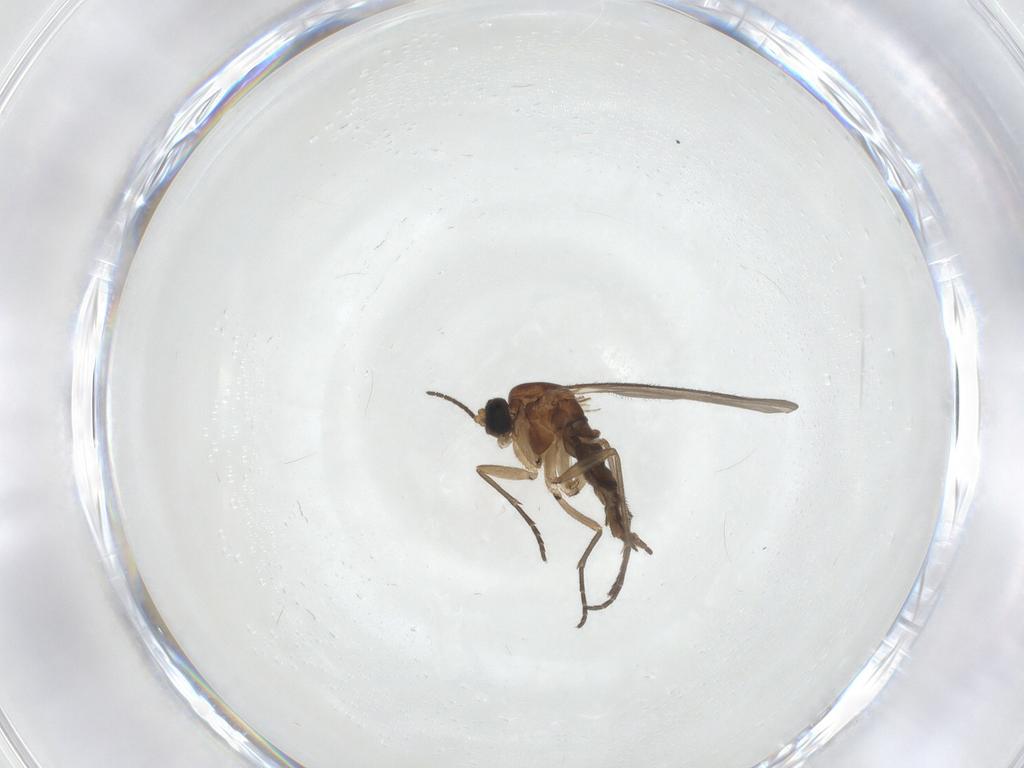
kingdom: Animalia
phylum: Arthropoda
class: Insecta
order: Diptera
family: Sciaridae
